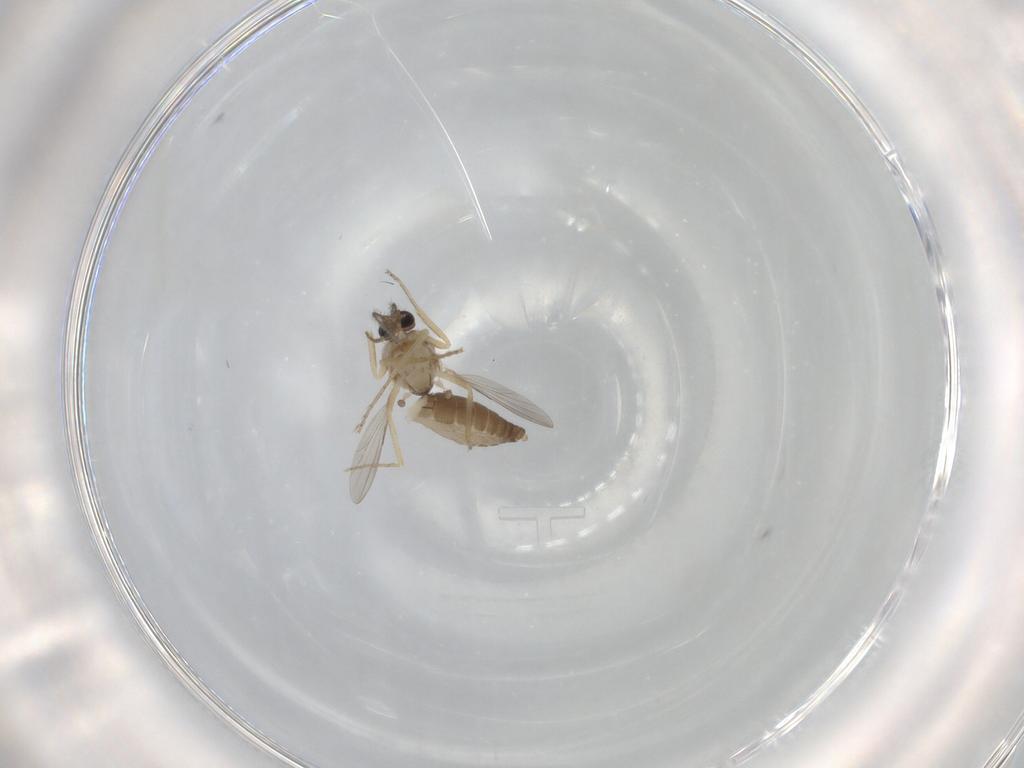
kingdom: Animalia
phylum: Arthropoda
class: Insecta
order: Diptera
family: Ceratopogonidae
